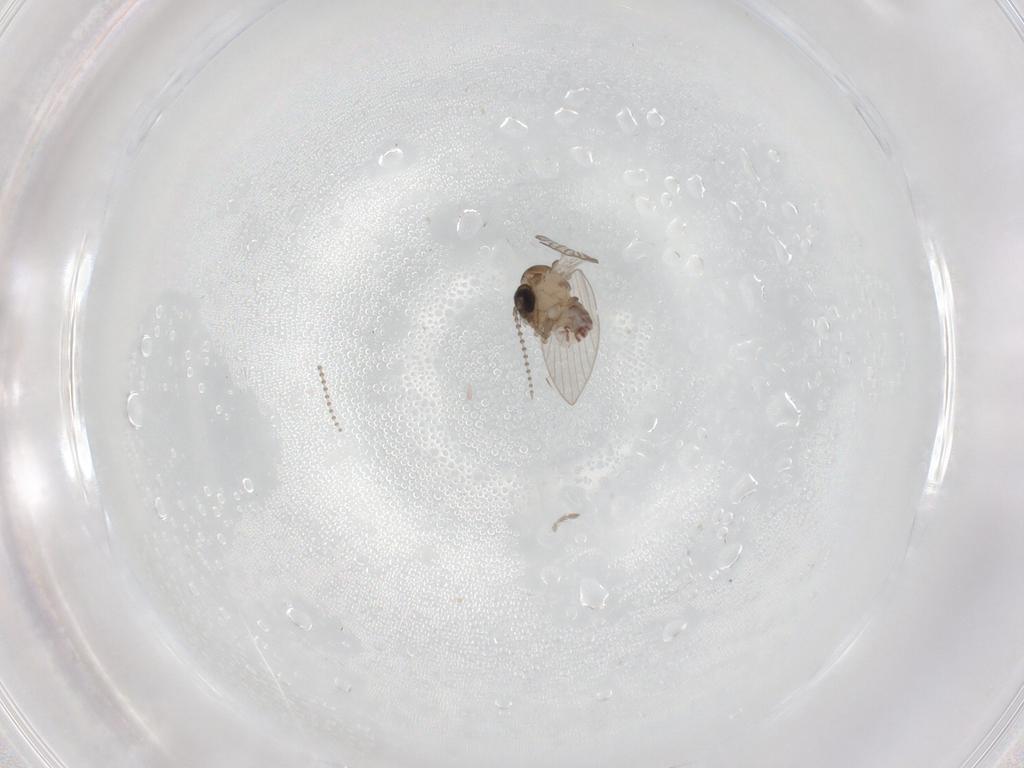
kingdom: Animalia
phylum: Arthropoda
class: Insecta
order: Diptera
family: Psychodidae
